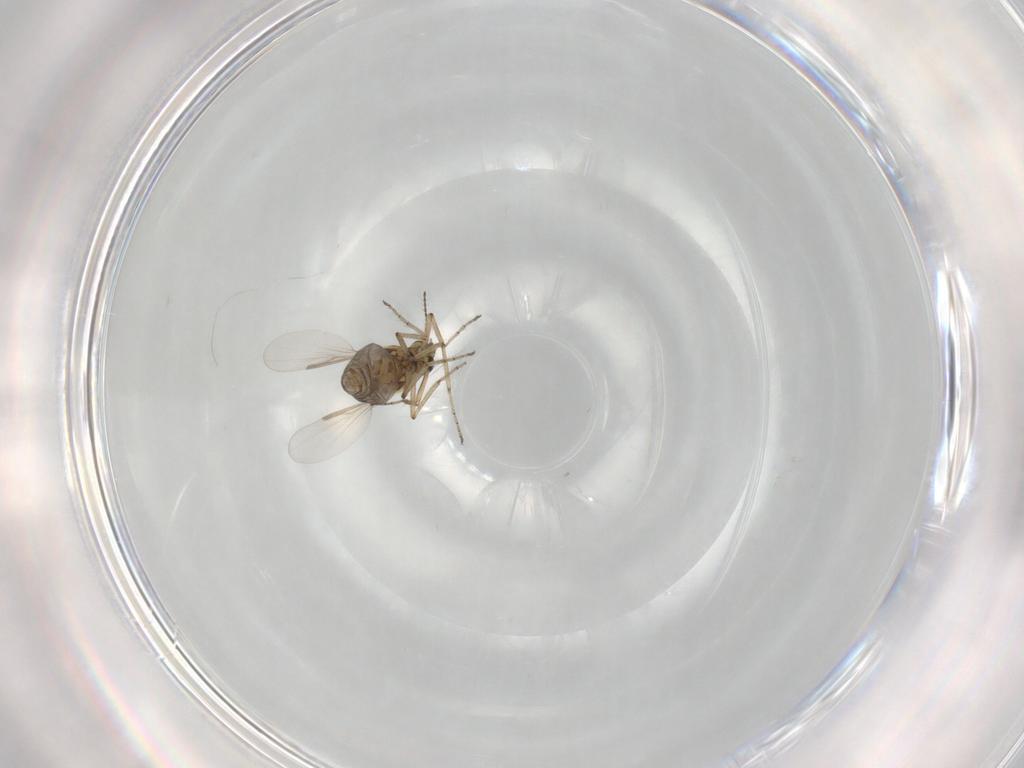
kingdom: Animalia
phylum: Arthropoda
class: Insecta
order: Diptera
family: Ceratopogonidae
